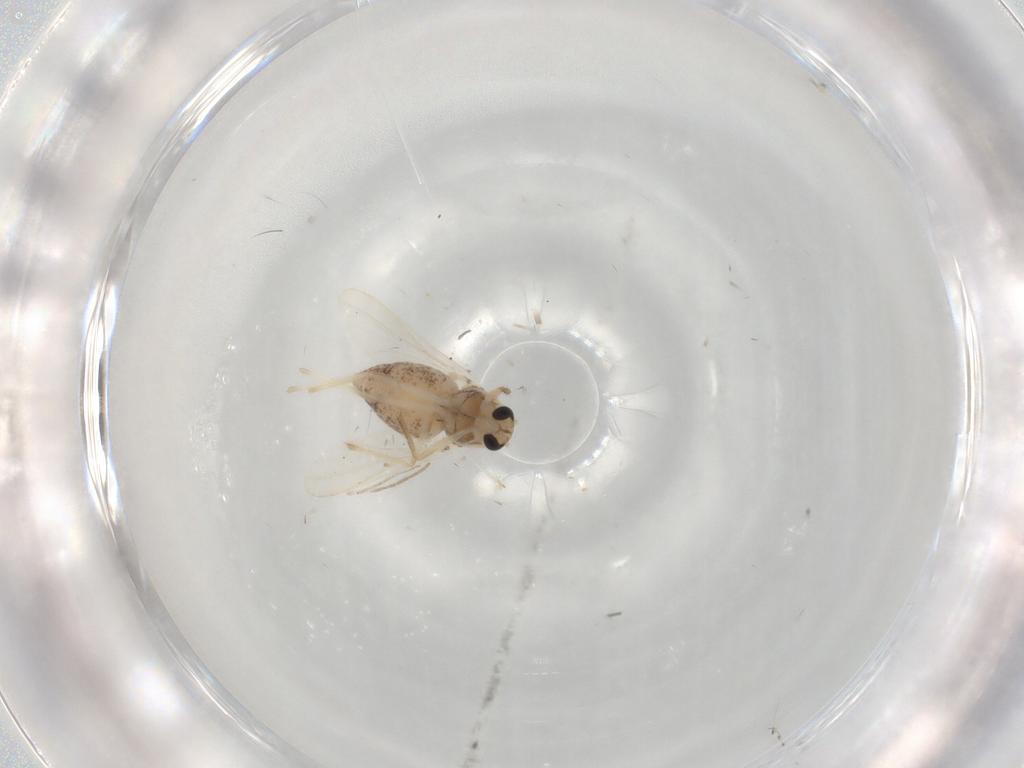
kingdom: Animalia
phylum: Arthropoda
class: Insecta
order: Diptera
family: Chironomidae
